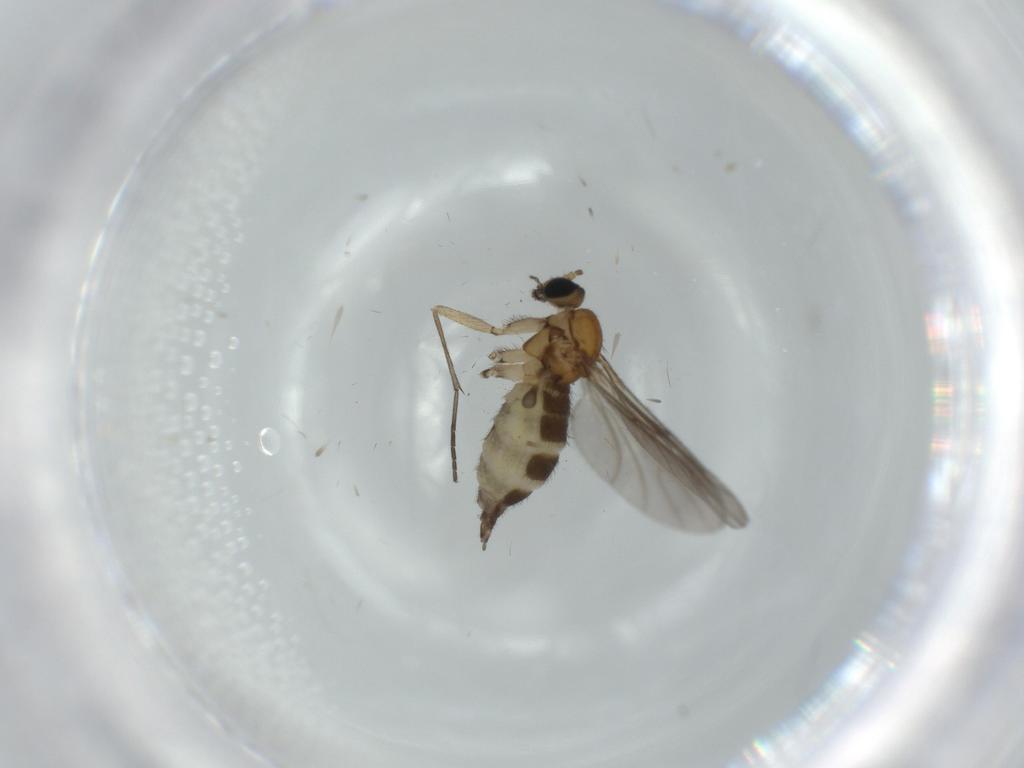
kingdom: Animalia
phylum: Arthropoda
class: Insecta
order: Diptera
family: Sciaridae
